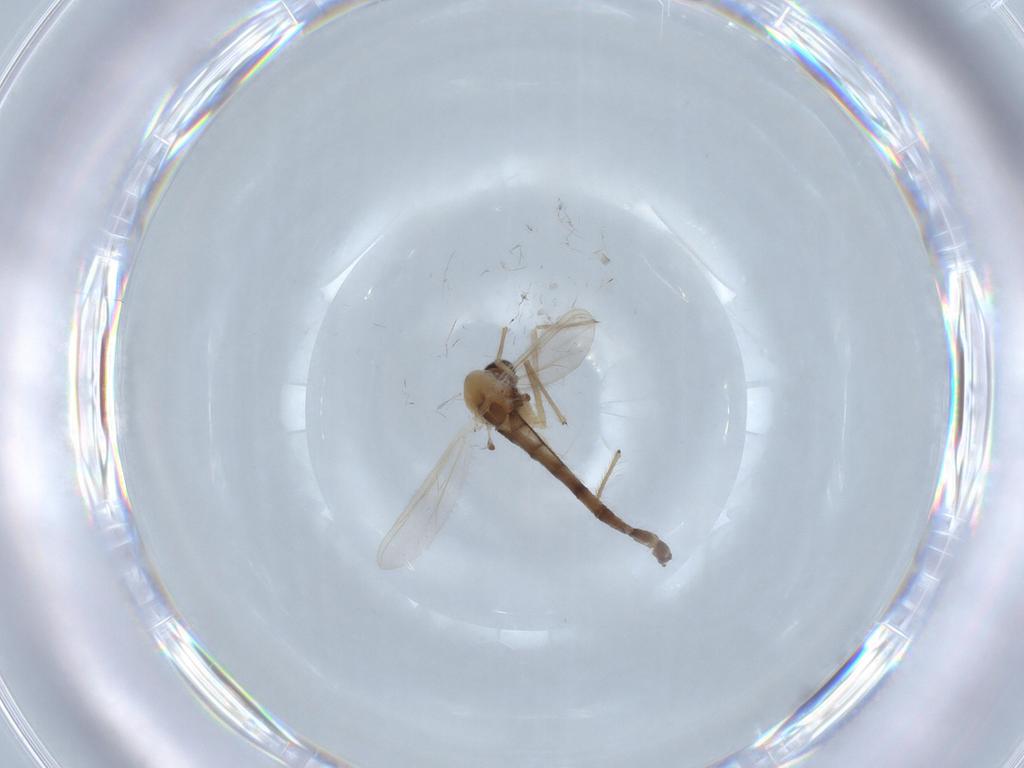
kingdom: Animalia
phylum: Arthropoda
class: Insecta
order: Diptera
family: Chironomidae
